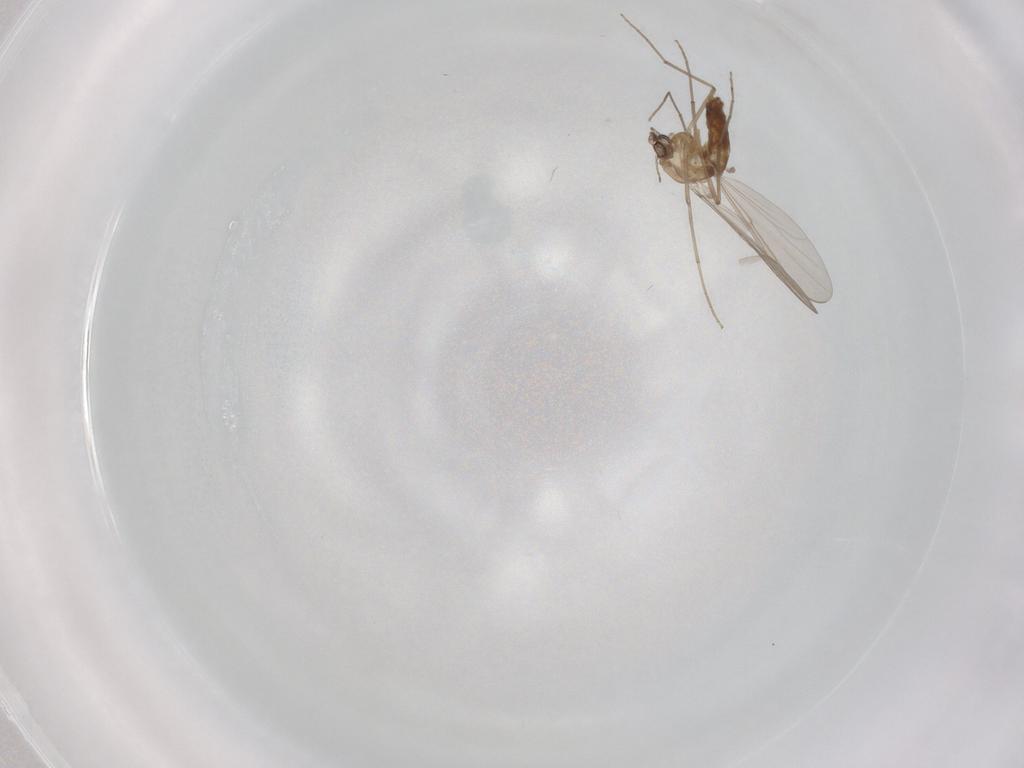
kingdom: Animalia
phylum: Arthropoda
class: Insecta
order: Diptera
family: Chironomidae
